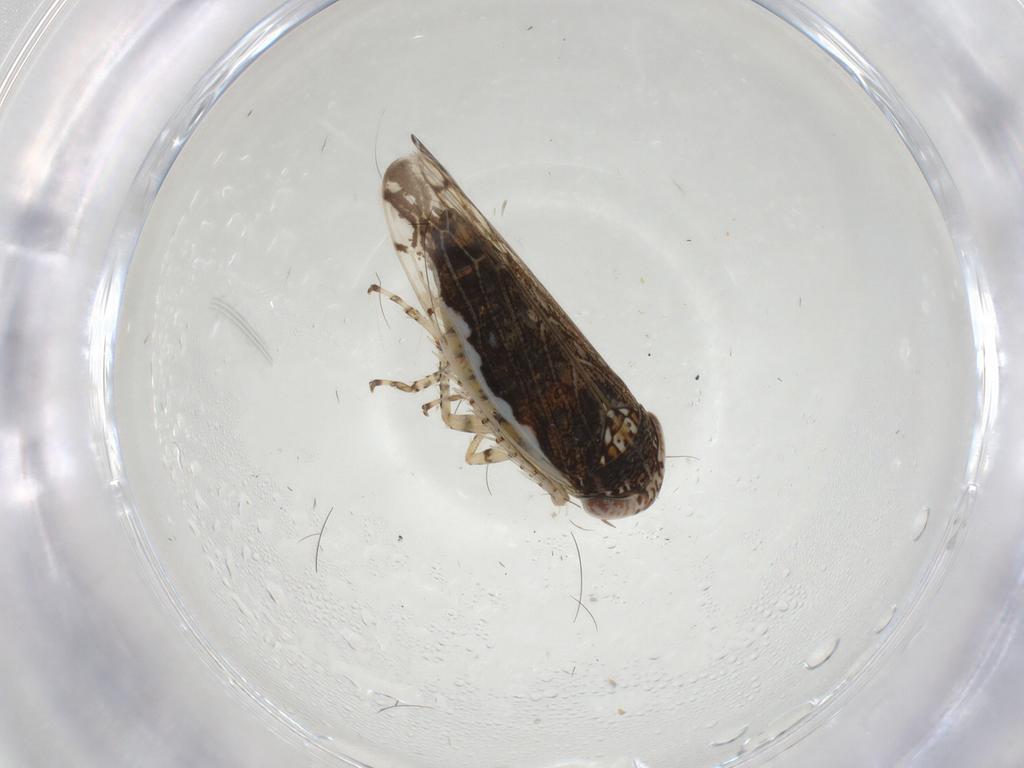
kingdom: Animalia
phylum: Arthropoda
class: Insecta
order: Hemiptera
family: Cicadellidae
